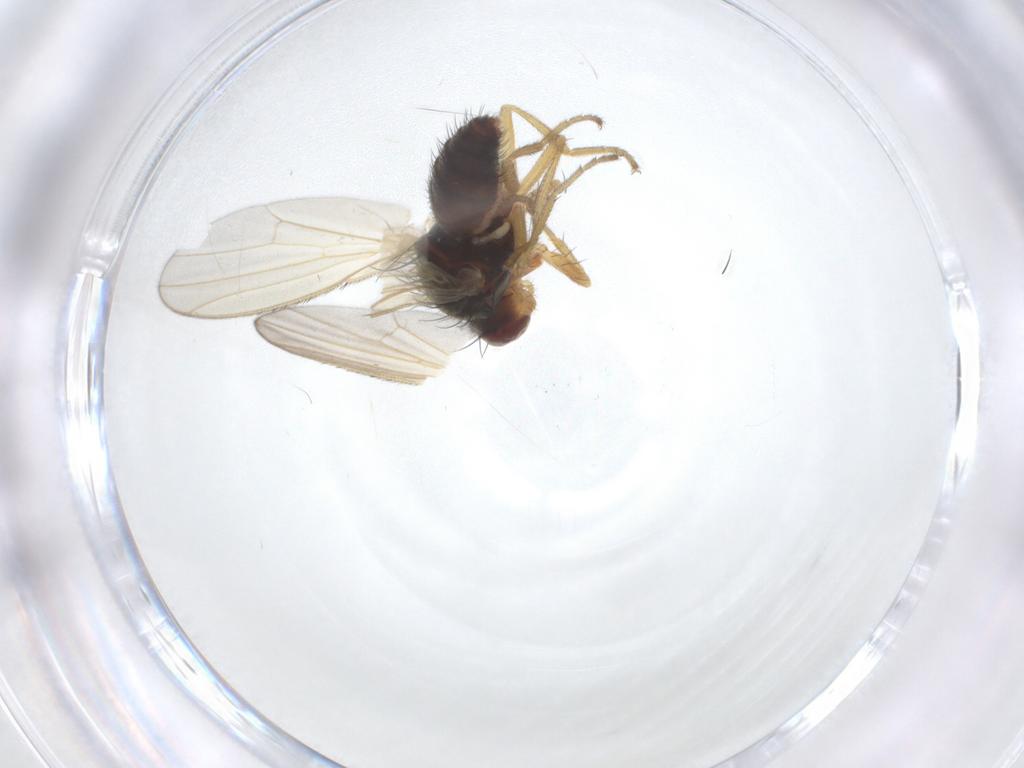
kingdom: Animalia
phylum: Arthropoda
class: Insecta
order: Diptera
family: Heleomyzidae
